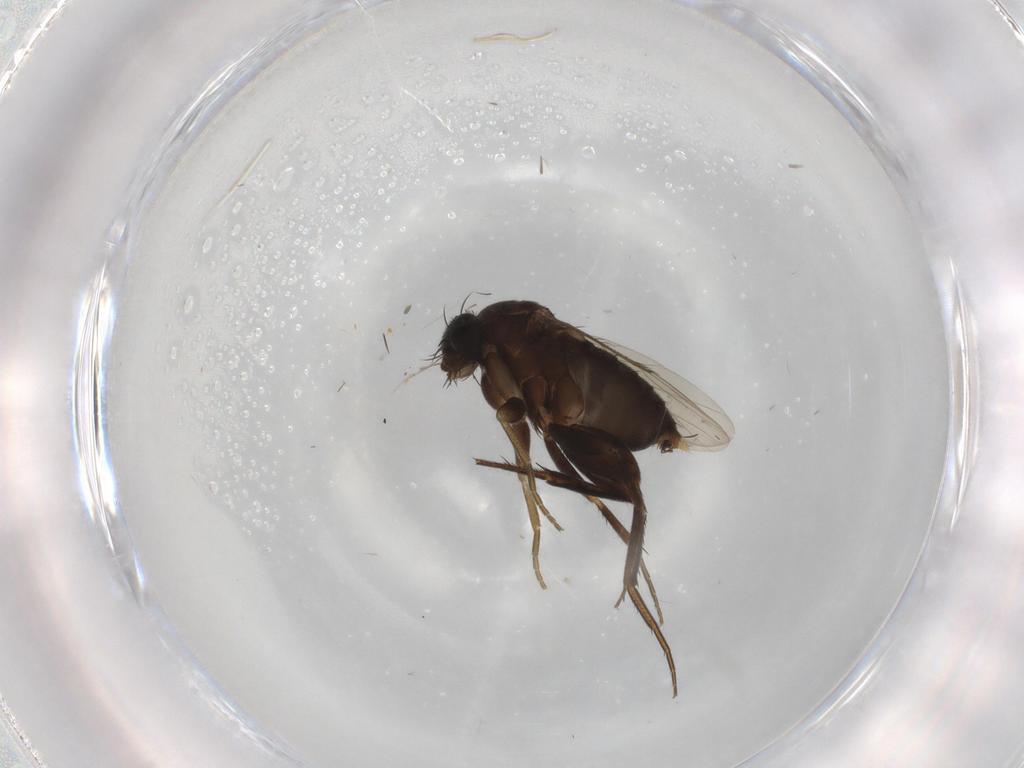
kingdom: Animalia
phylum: Arthropoda
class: Insecta
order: Diptera
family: Phoridae
